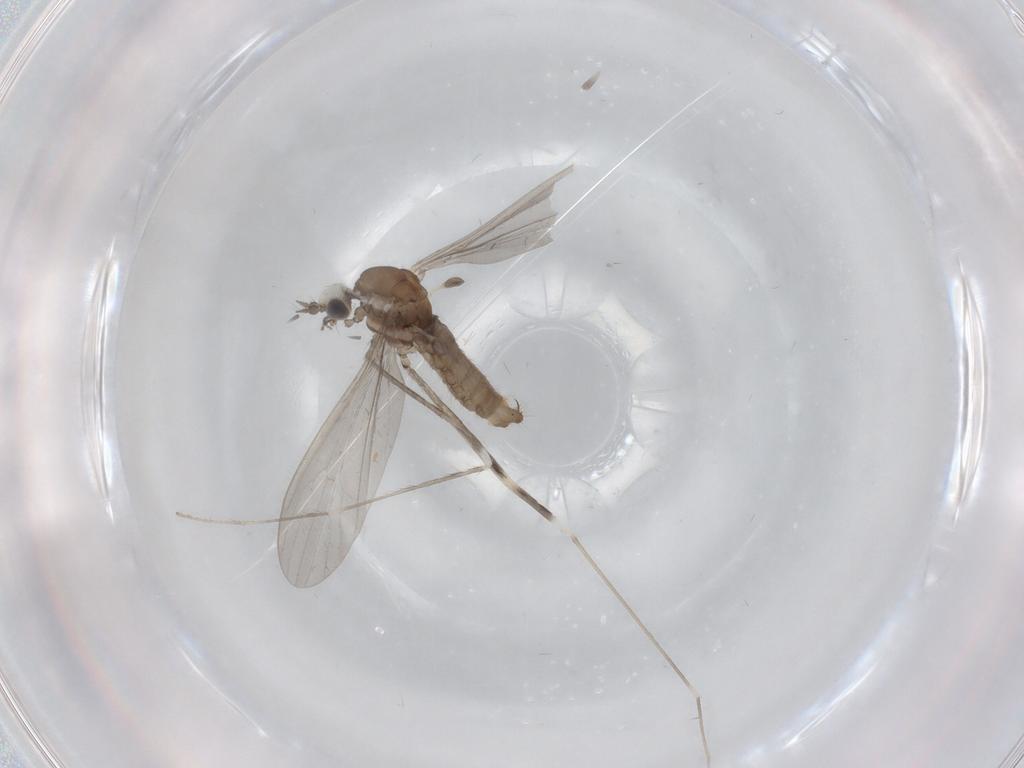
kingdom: Animalia
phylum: Arthropoda
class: Insecta
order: Diptera
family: Limoniidae
